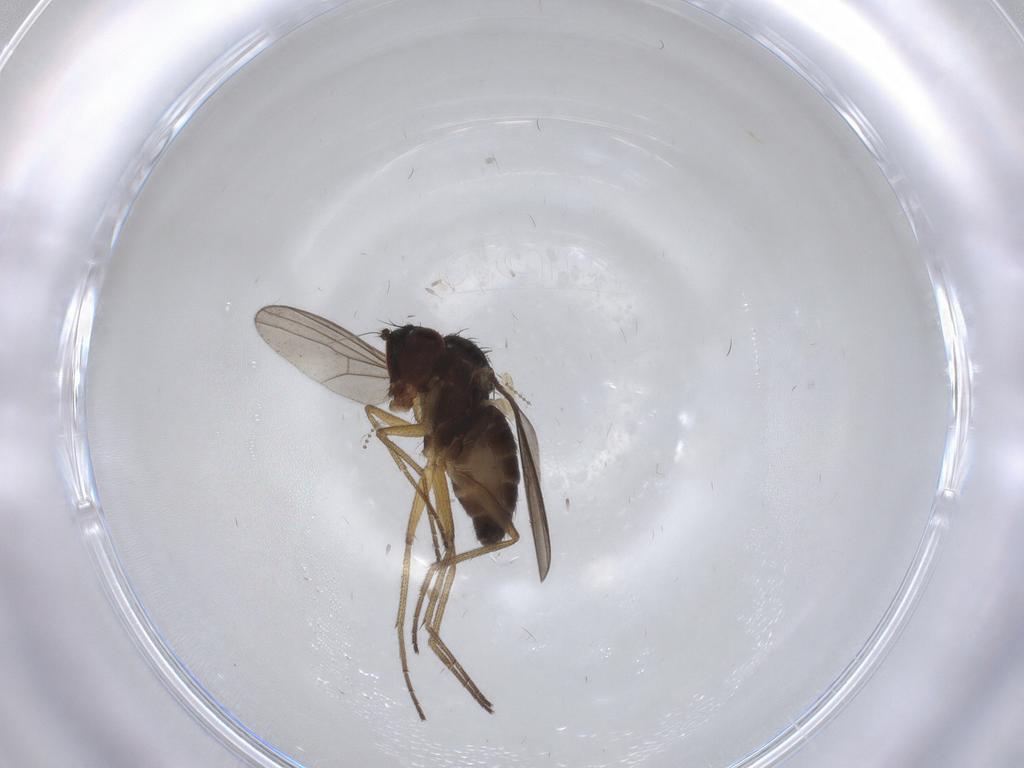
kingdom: Animalia
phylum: Arthropoda
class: Insecta
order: Diptera
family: Dolichopodidae
